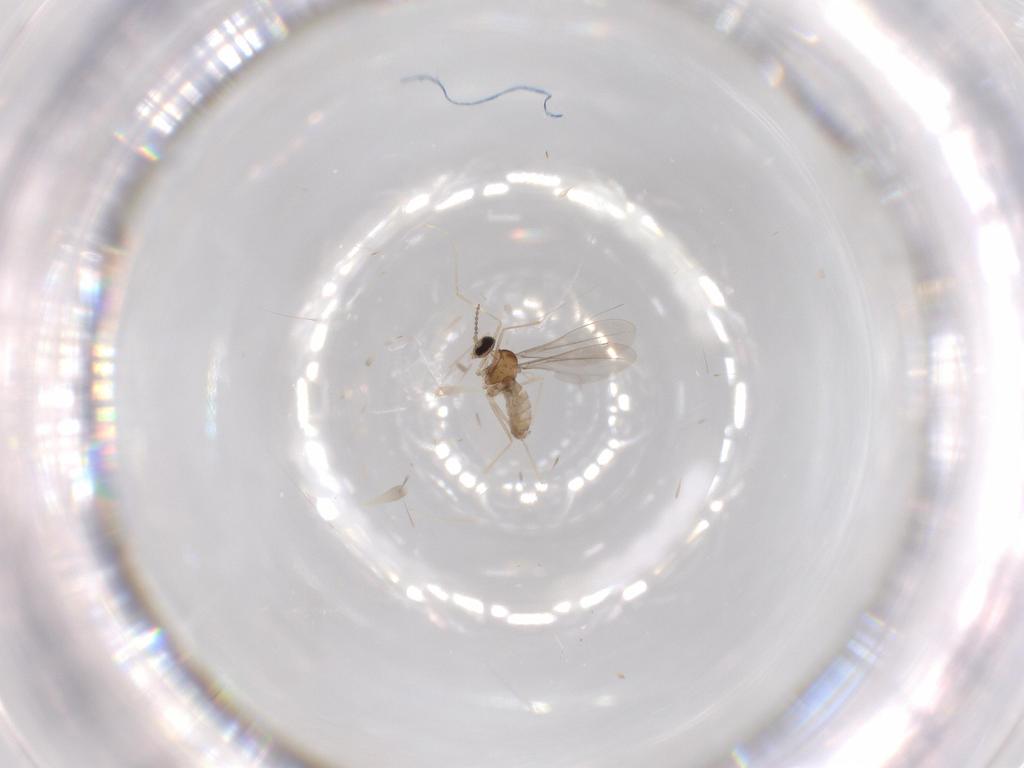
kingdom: Animalia
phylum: Arthropoda
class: Insecta
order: Diptera
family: Cecidomyiidae
